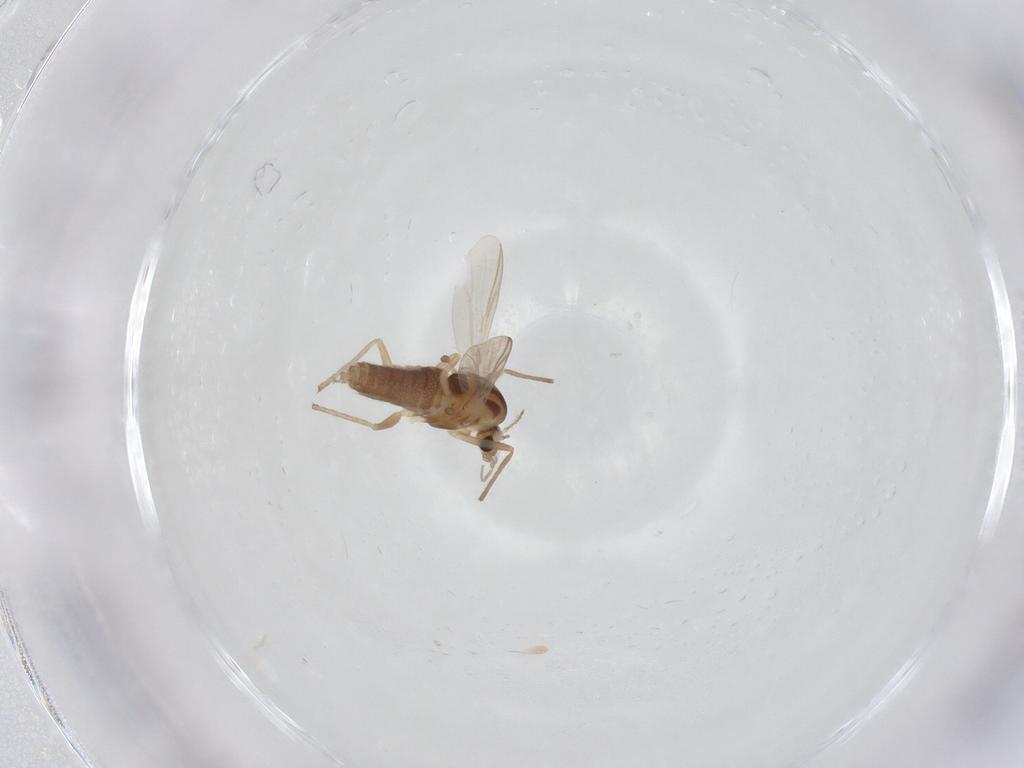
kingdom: Animalia
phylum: Arthropoda
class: Insecta
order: Diptera
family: Chironomidae
